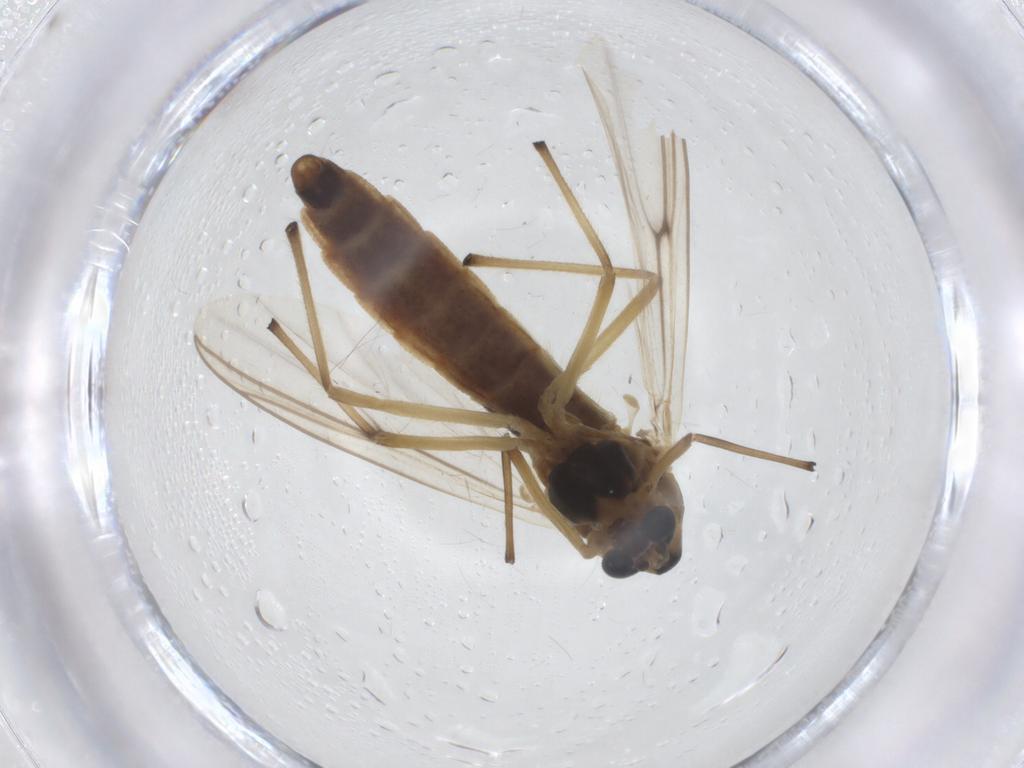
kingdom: Animalia
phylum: Arthropoda
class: Insecta
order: Diptera
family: Chironomidae
